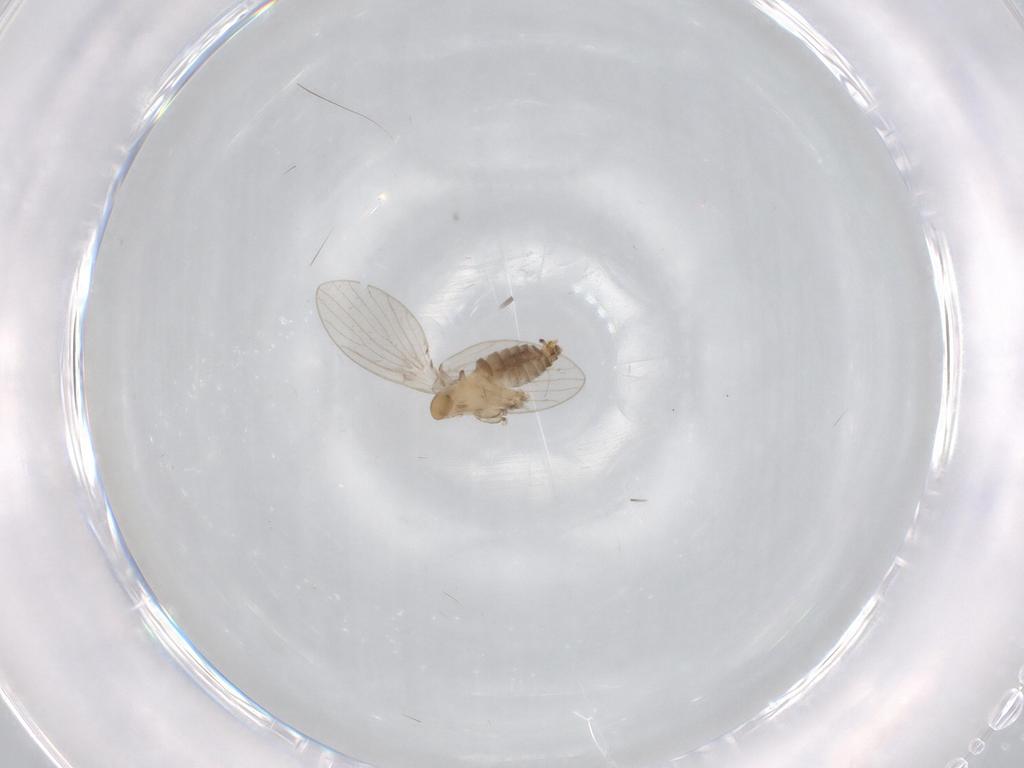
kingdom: Animalia
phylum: Arthropoda
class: Insecta
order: Diptera
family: Psychodidae
